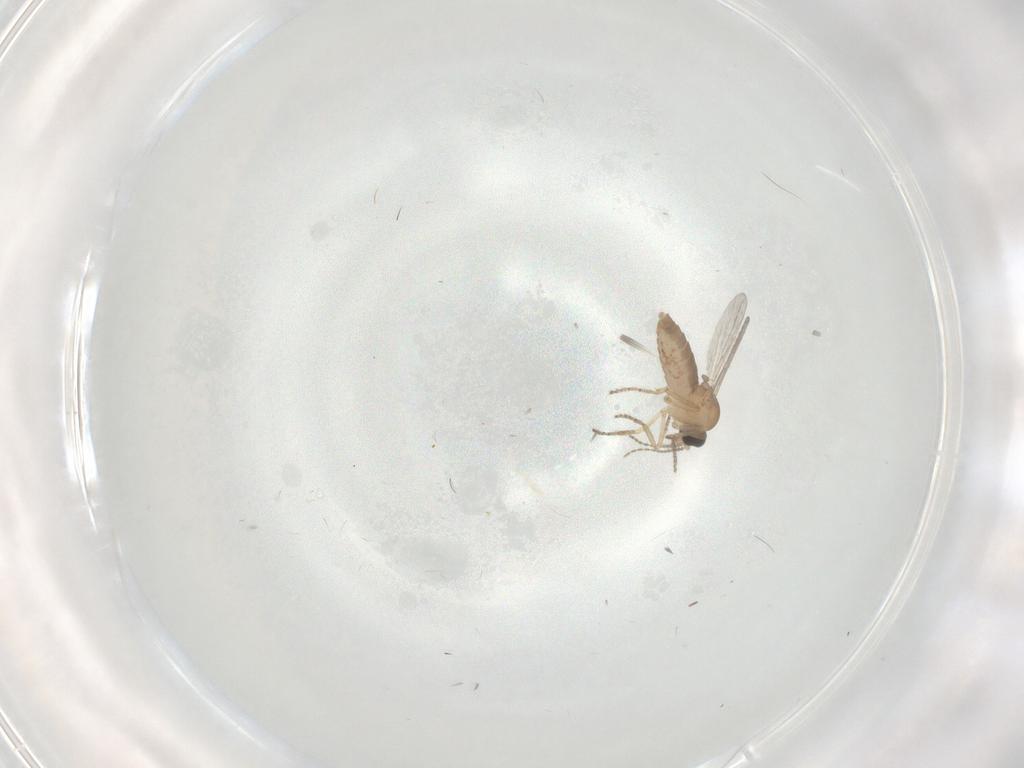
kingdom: Animalia
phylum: Arthropoda
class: Insecta
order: Diptera
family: Ceratopogonidae
